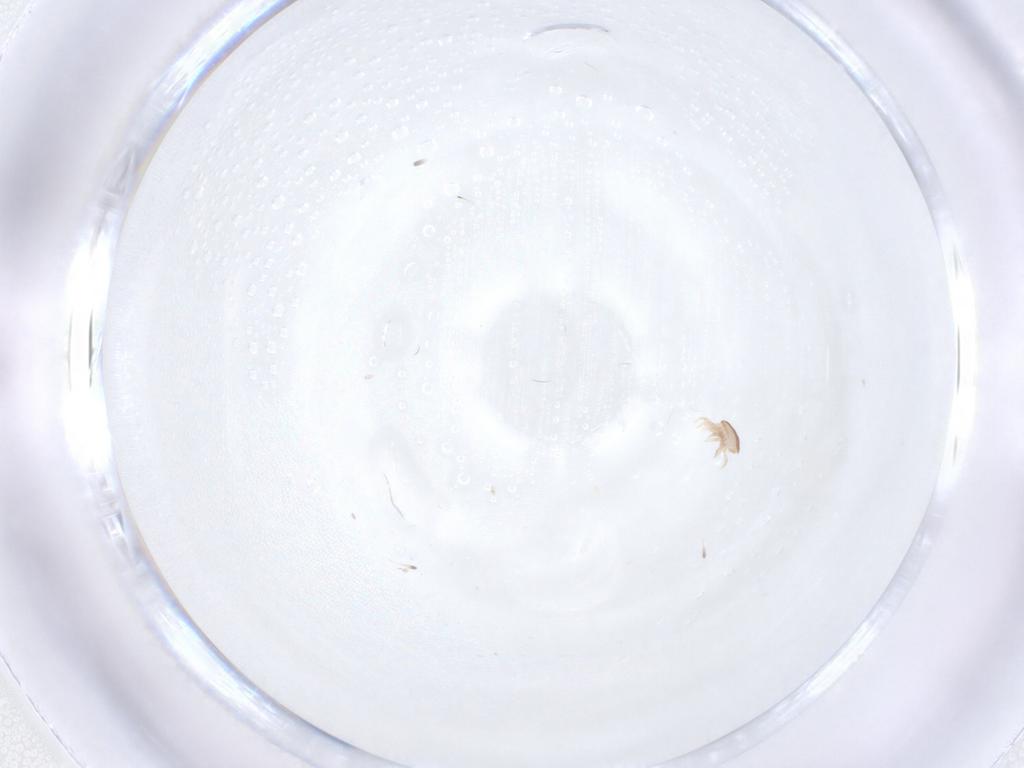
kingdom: Animalia
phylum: Arthropoda
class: Arachnida
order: Mesostigmata
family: Ascidae
